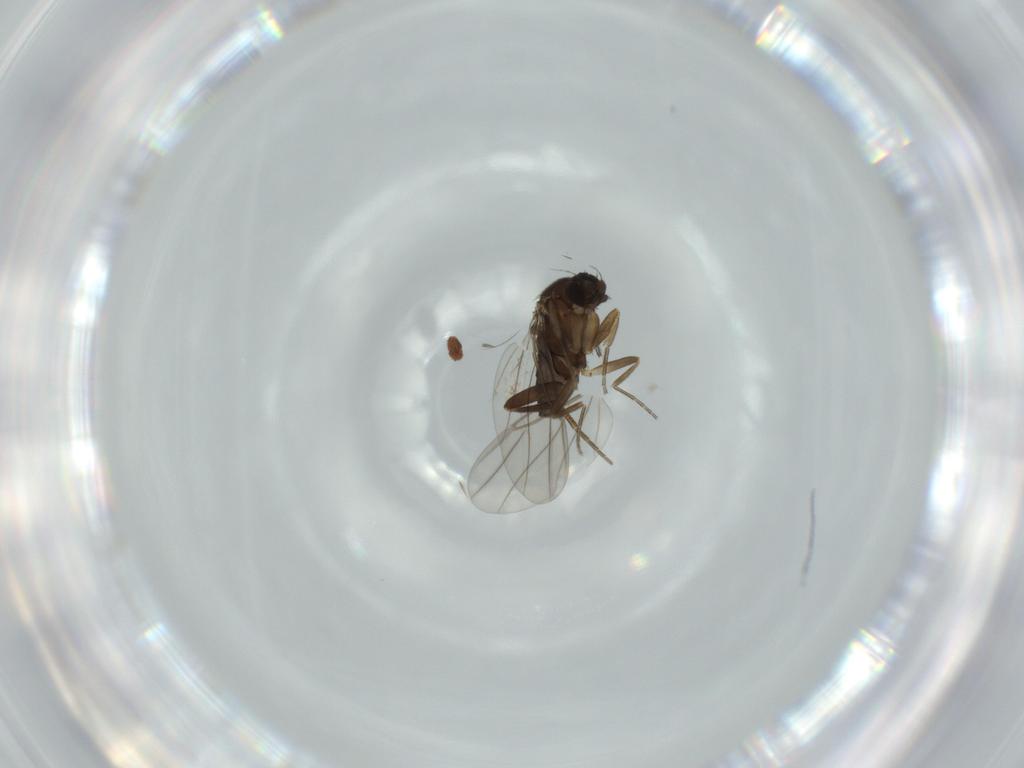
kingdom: Animalia
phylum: Arthropoda
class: Insecta
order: Diptera
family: Phoridae
